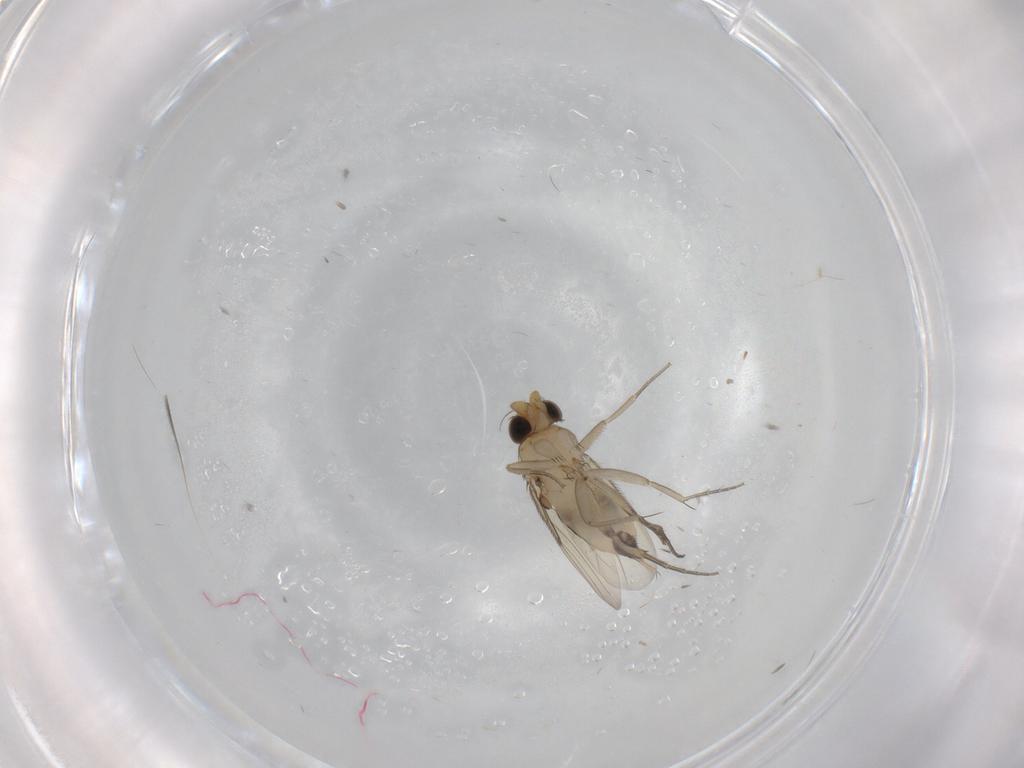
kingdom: Animalia
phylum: Arthropoda
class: Insecta
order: Diptera
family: Sciaridae
